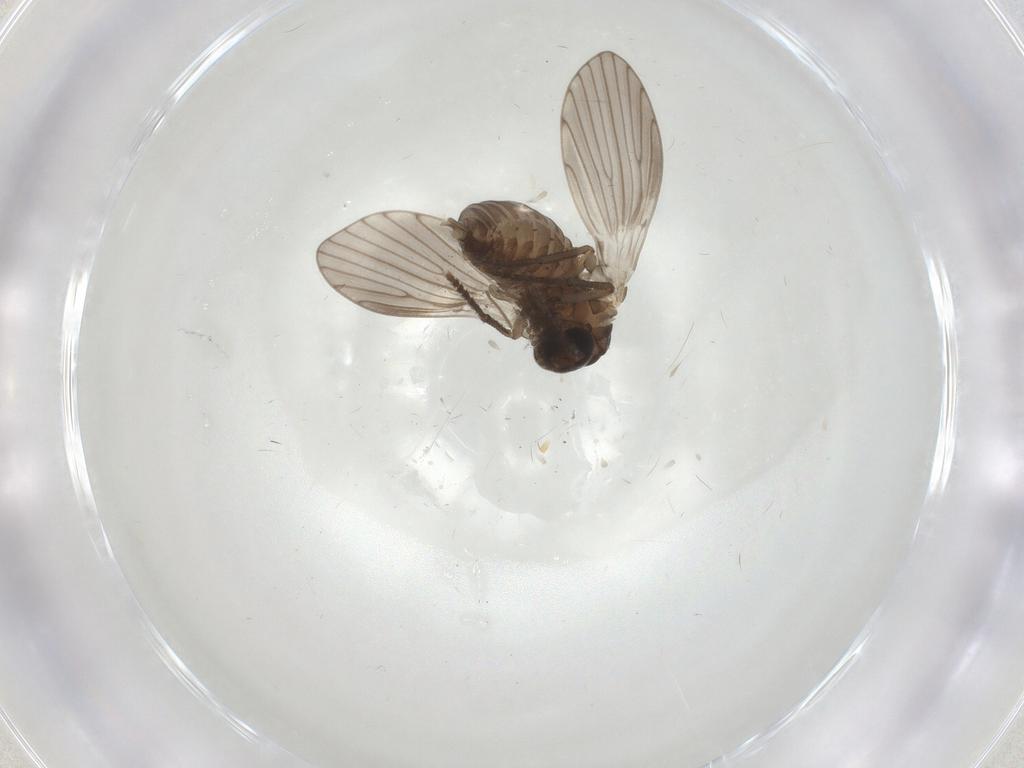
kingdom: Animalia
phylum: Arthropoda
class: Insecta
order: Diptera
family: Psychodidae
